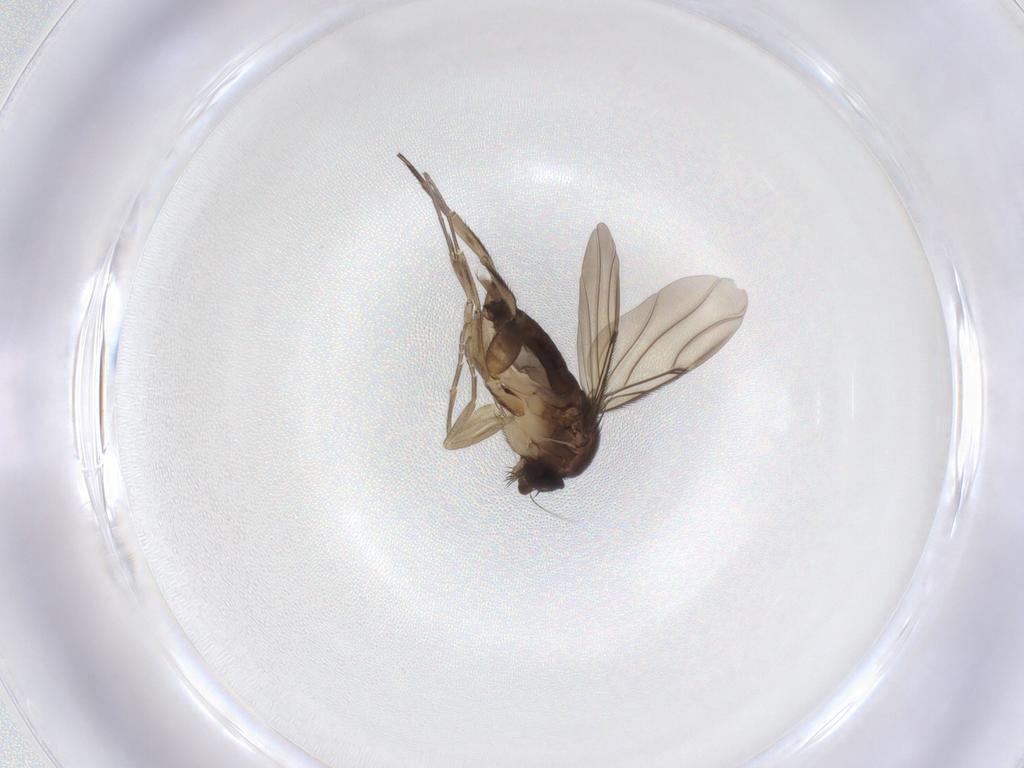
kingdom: Animalia
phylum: Arthropoda
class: Insecta
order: Diptera
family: Phoridae
